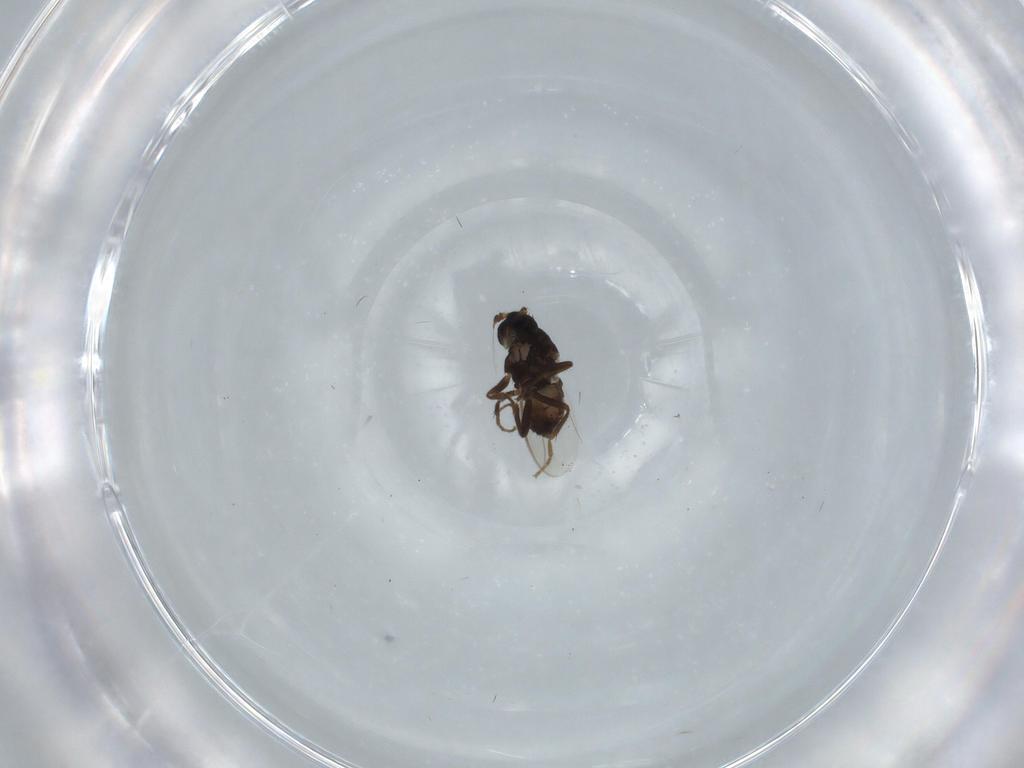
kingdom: Animalia
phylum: Arthropoda
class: Insecta
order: Diptera
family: Sphaeroceridae
